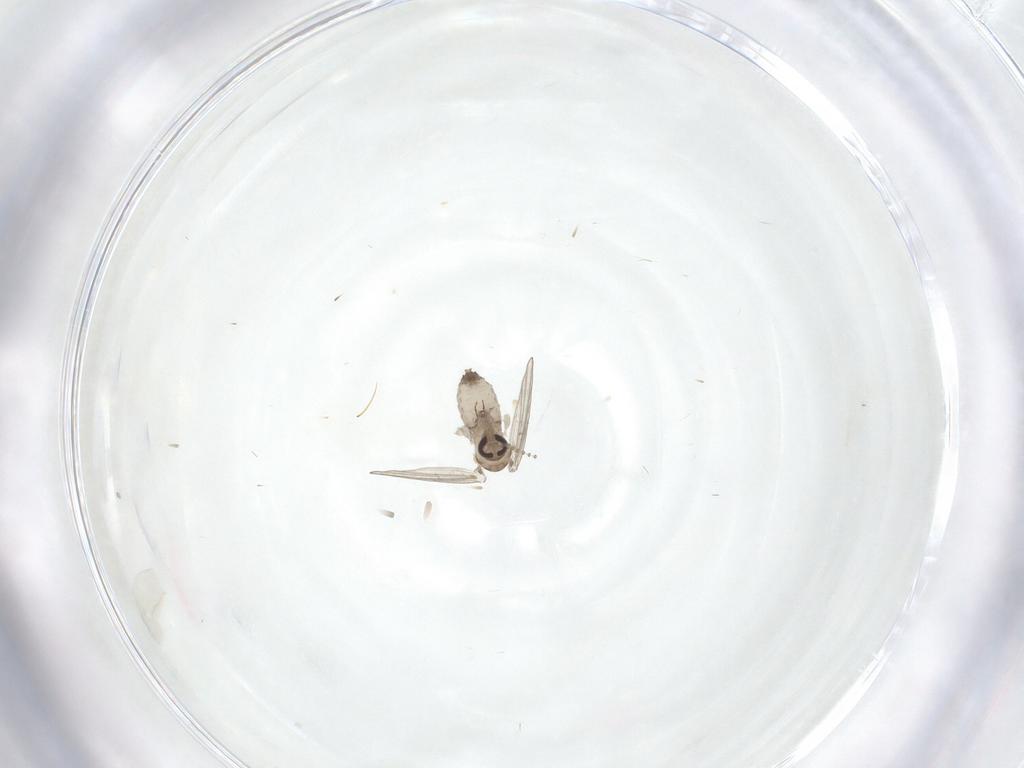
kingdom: Animalia
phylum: Arthropoda
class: Insecta
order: Diptera
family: Psychodidae
